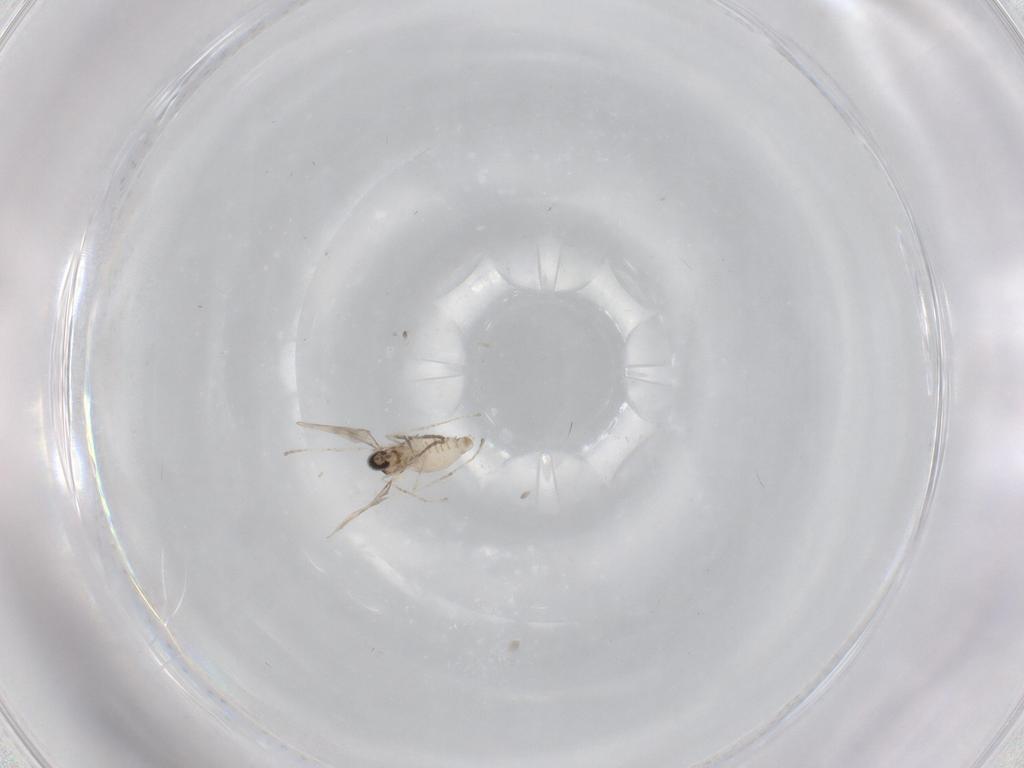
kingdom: Animalia
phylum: Arthropoda
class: Insecta
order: Diptera
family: Cecidomyiidae
